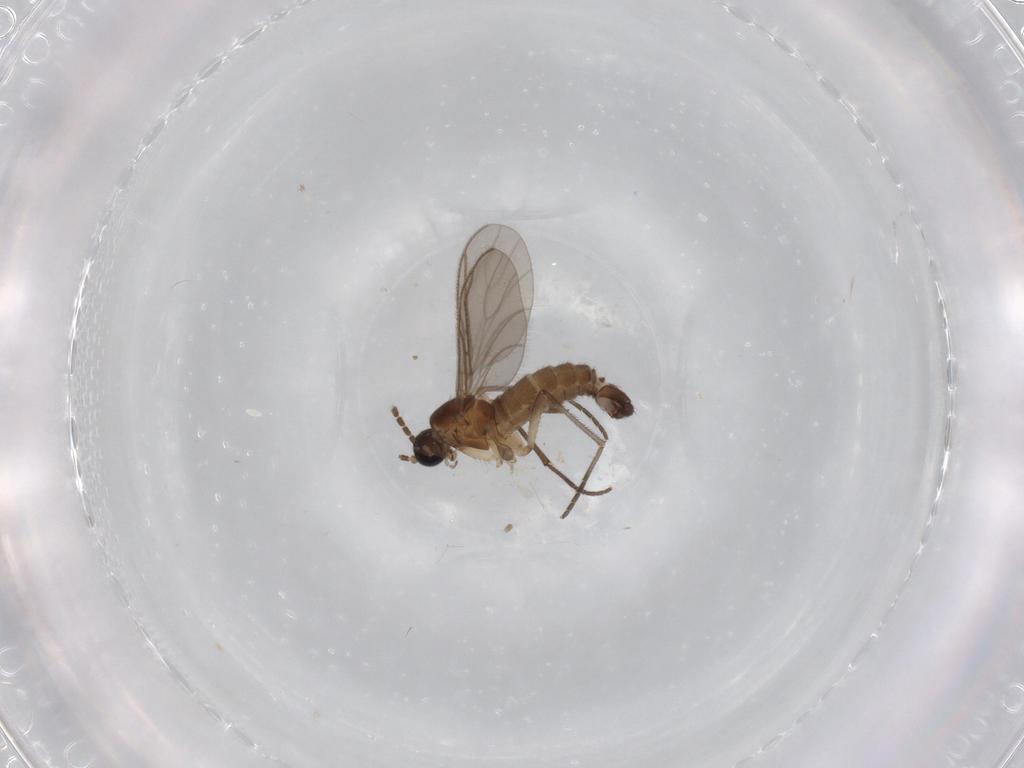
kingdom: Animalia
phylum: Arthropoda
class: Insecta
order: Diptera
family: Sciaridae
